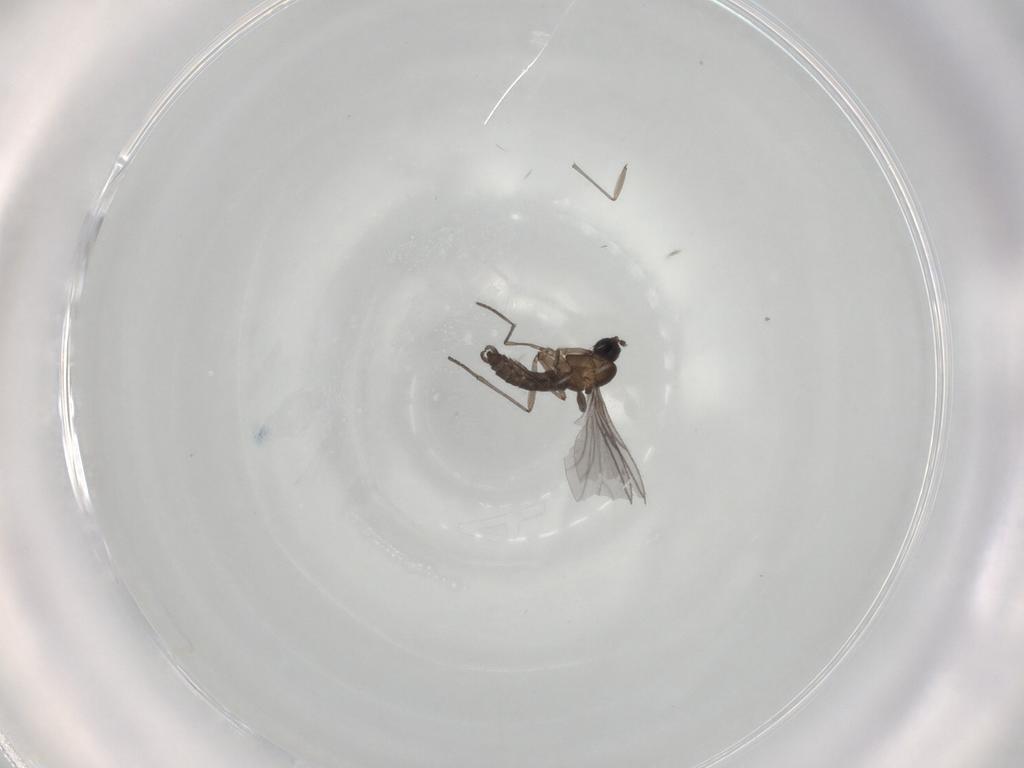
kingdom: Animalia
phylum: Arthropoda
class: Insecta
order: Diptera
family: Sciaridae
